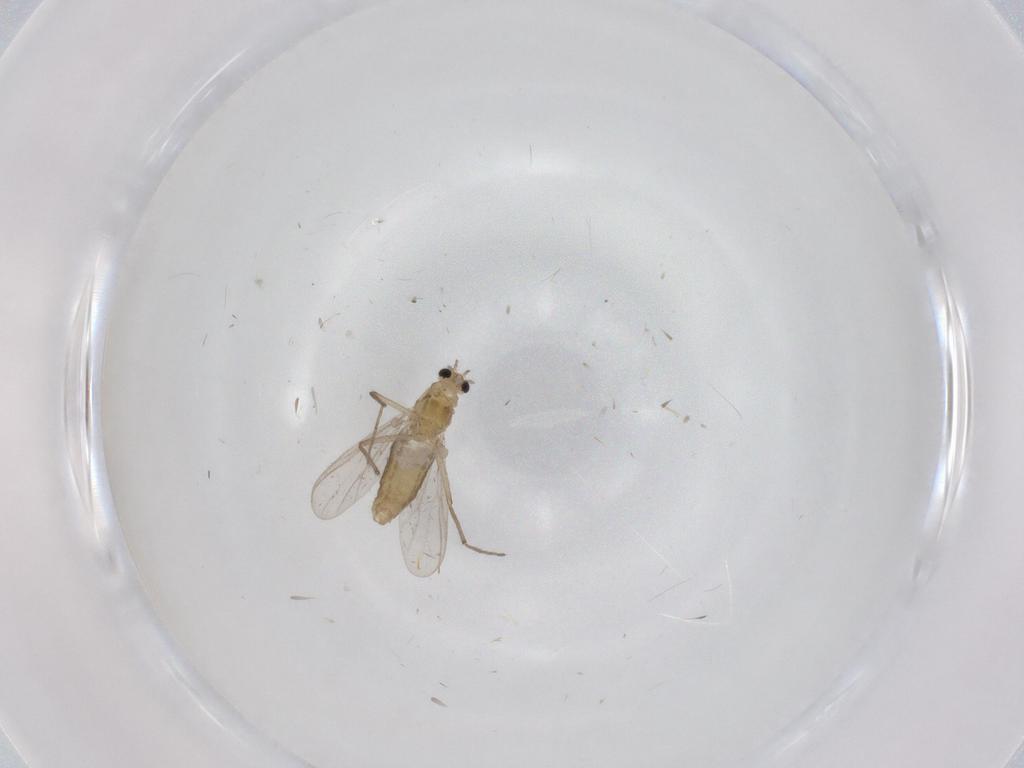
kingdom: Animalia
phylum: Arthropoda
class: Insecta
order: Diptera
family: Chironomidae
